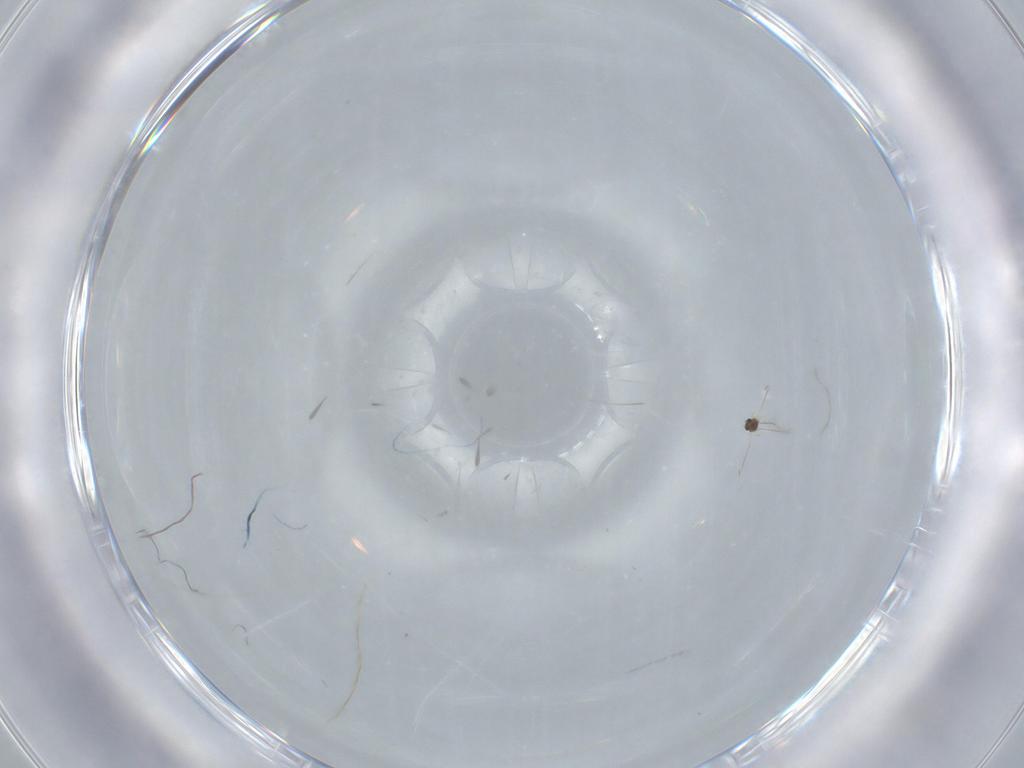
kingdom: Animalia
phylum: Arthropoda
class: Insecta
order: Hymenoptera
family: Mymaridae
